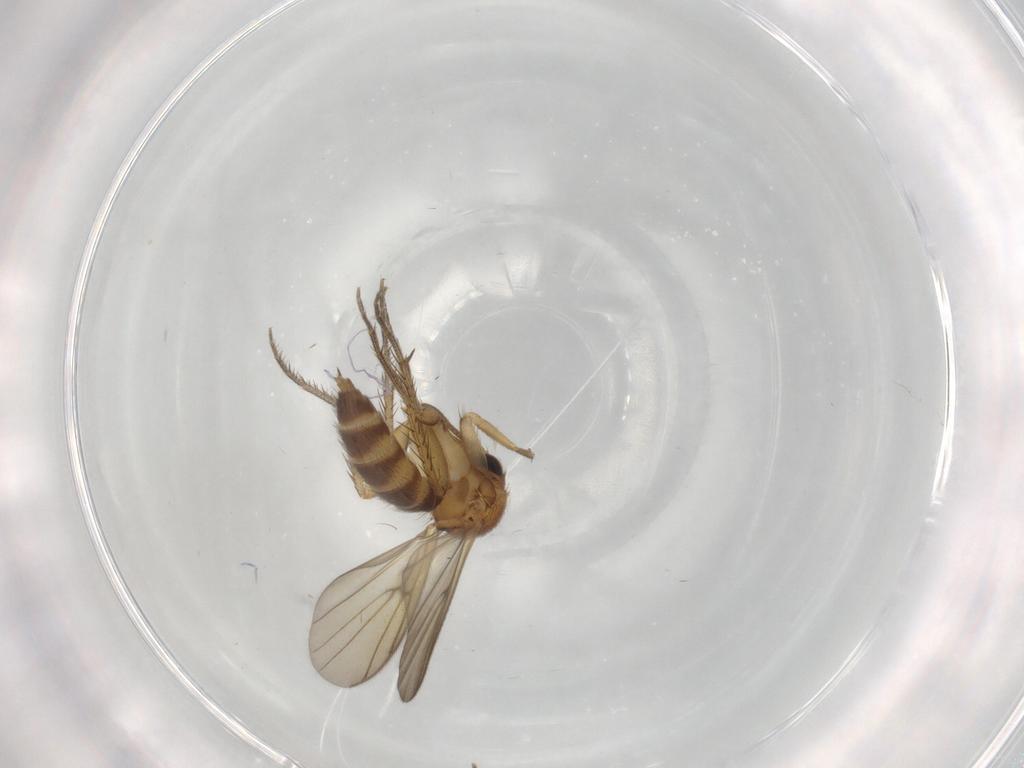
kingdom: Animalia
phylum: Arthropoda
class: Insecta
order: Diptera
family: Cecidomyiidae
